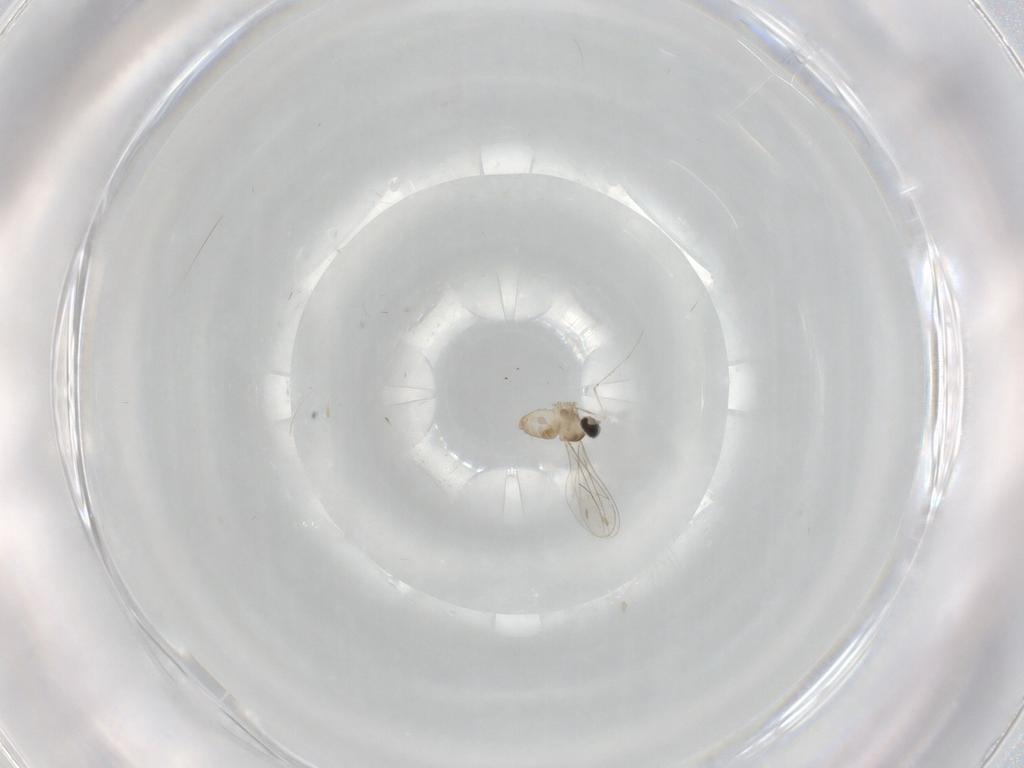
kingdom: Animalia
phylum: Arthropoda
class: Insecta
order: Diptera
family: Cecidomyiidae
